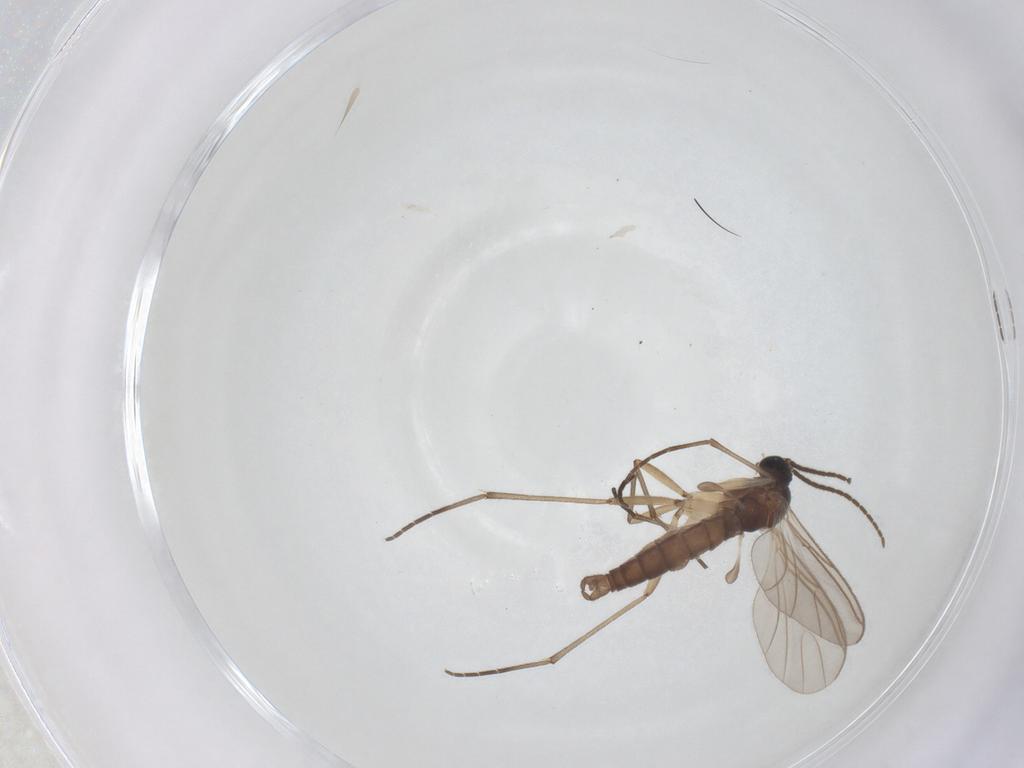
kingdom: Animalia
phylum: Arthropoda
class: Insecta
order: Diptera
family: Sciaridae
